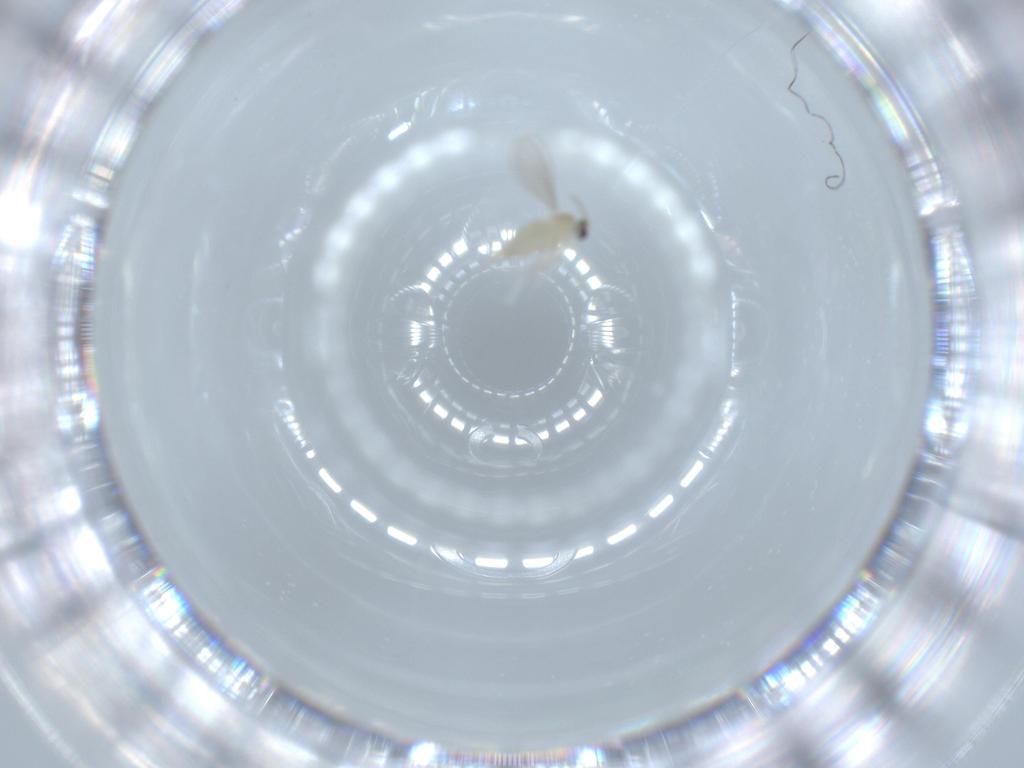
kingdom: Animalia
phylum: Arthropoda
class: Insecta
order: Diptera
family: Cecidomyiidae
